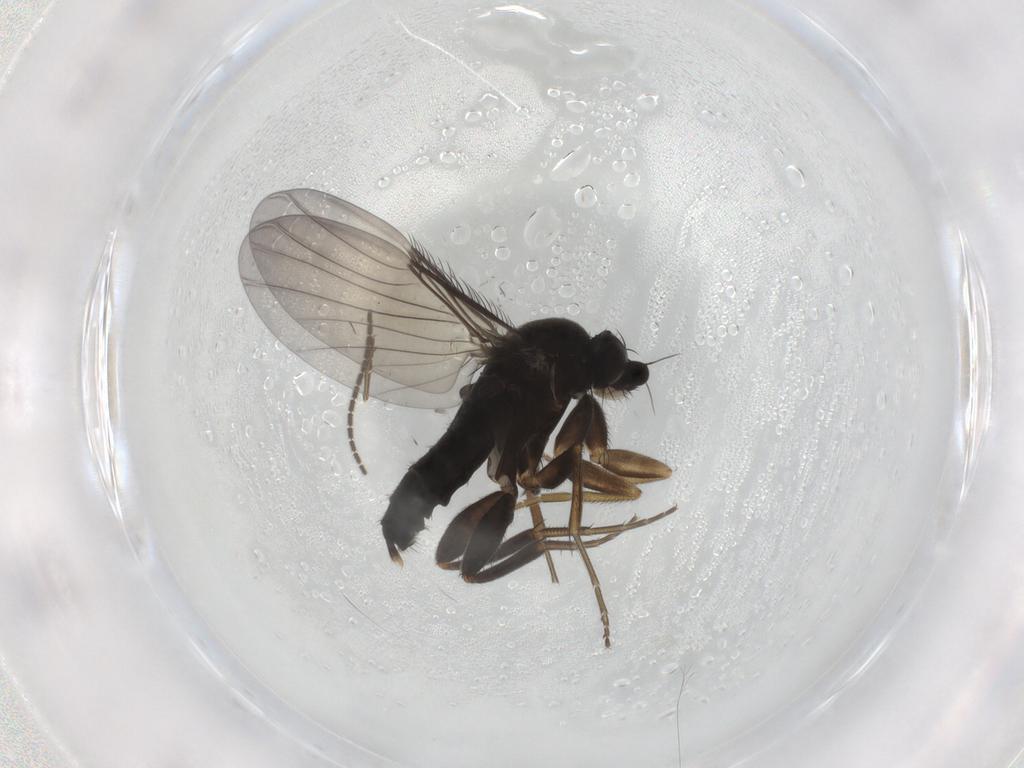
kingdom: Animalia
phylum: Arthropoda
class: Insecta
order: Diptera
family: Phoridae
